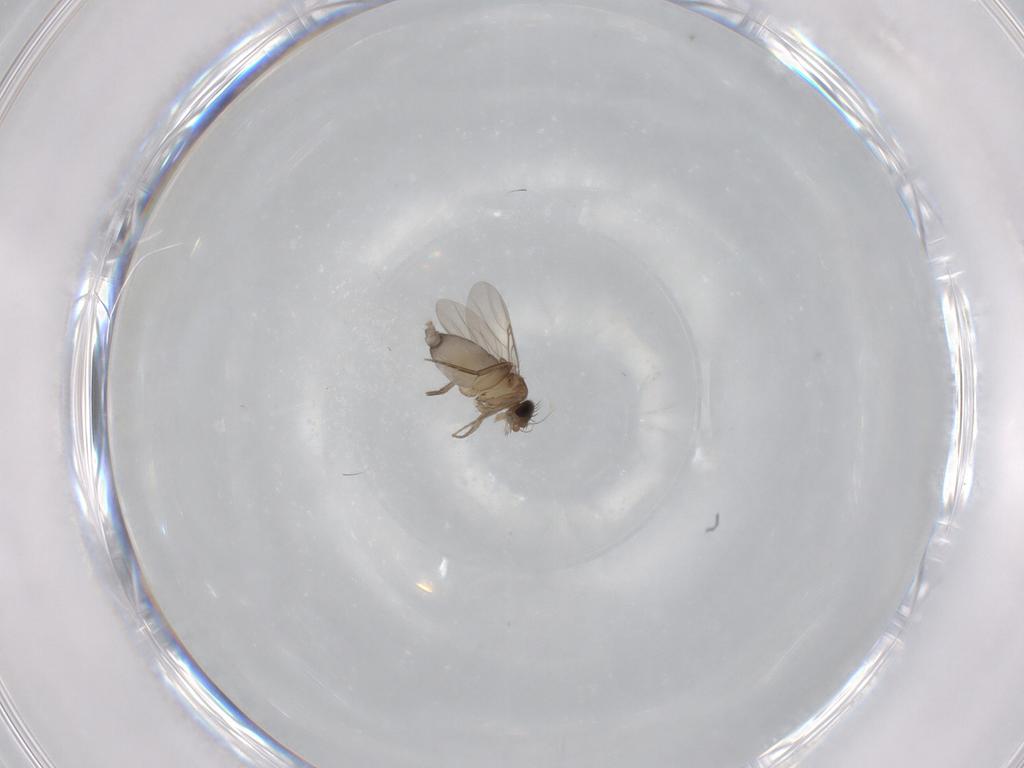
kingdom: Animalia
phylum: Arthropoda
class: Insecta
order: Diptera
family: Phoridae
